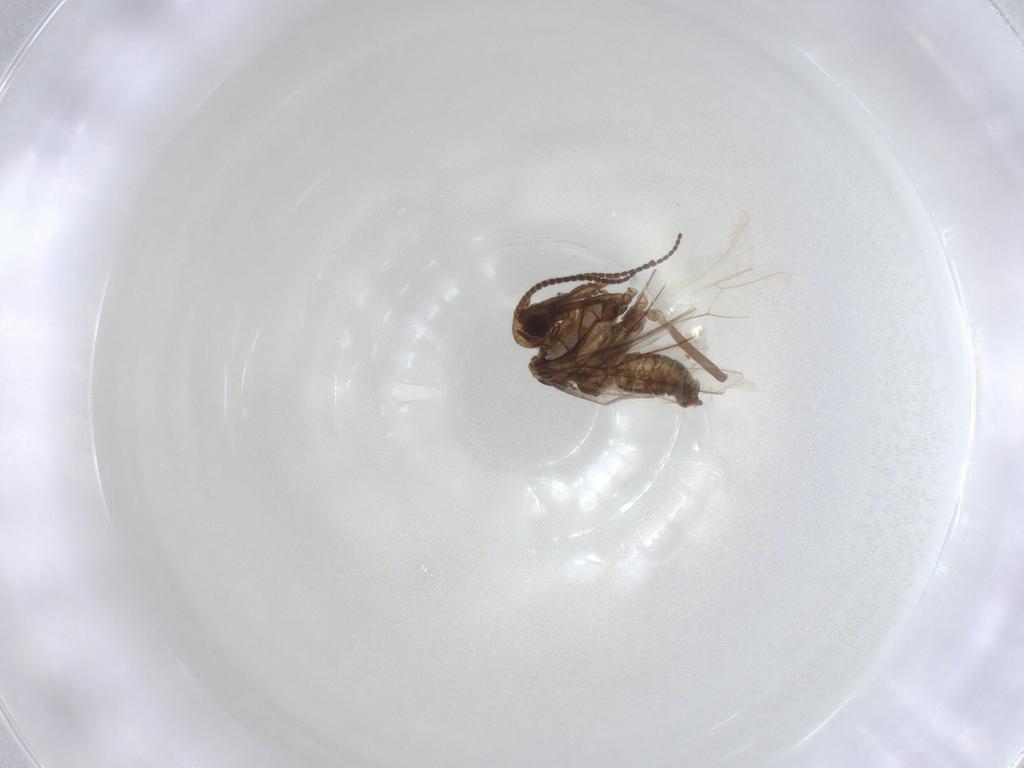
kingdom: Animalia
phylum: Arthropoda
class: Insecta
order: Neuroptera
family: Coniopterygidae
